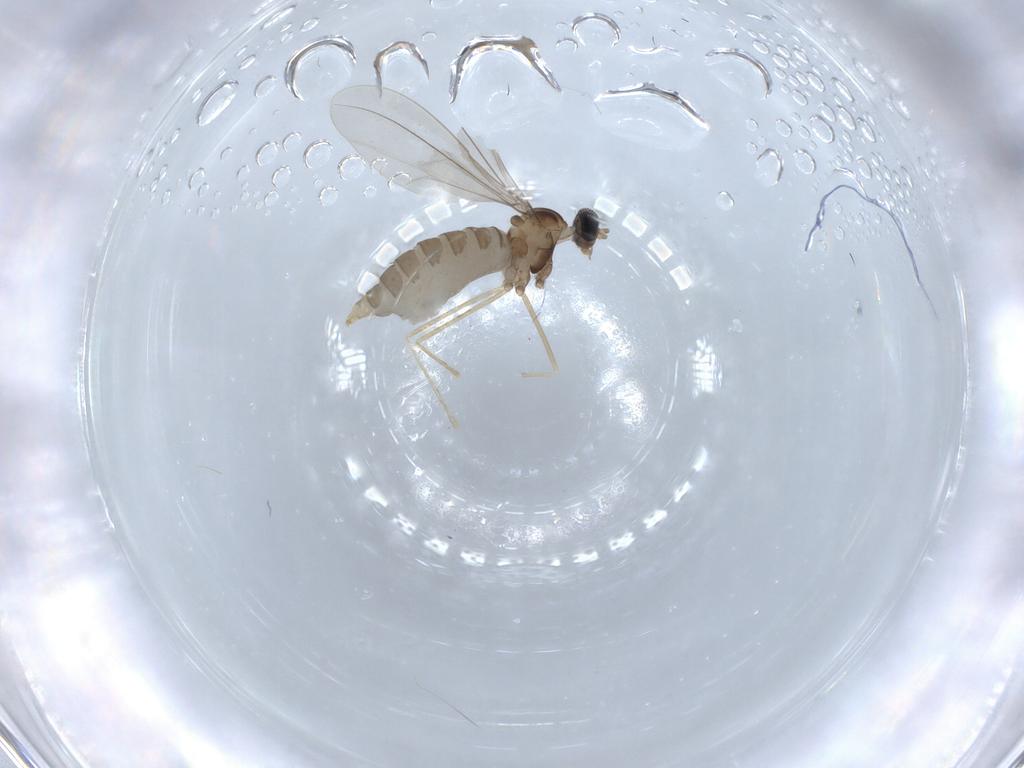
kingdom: Animalia
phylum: Arthropoda
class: Insecta
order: Diptera
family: Cecidomyiidae
